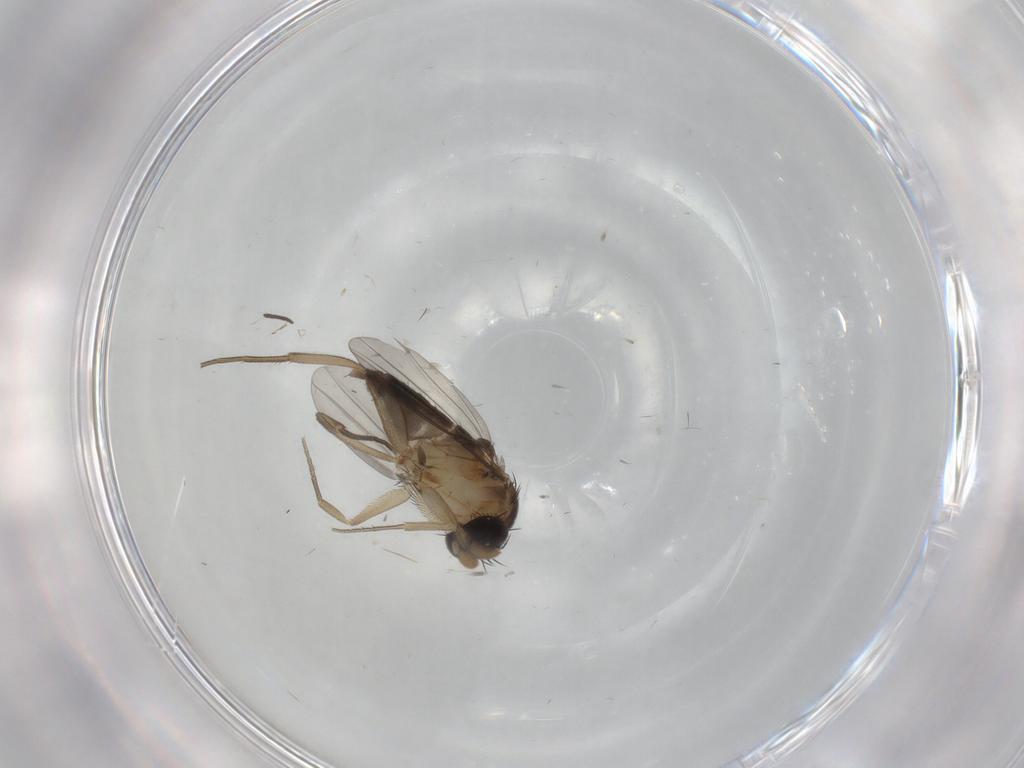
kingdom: Animalia
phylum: Arthropoda
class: Insecta
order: Diptera
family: Phoridae
